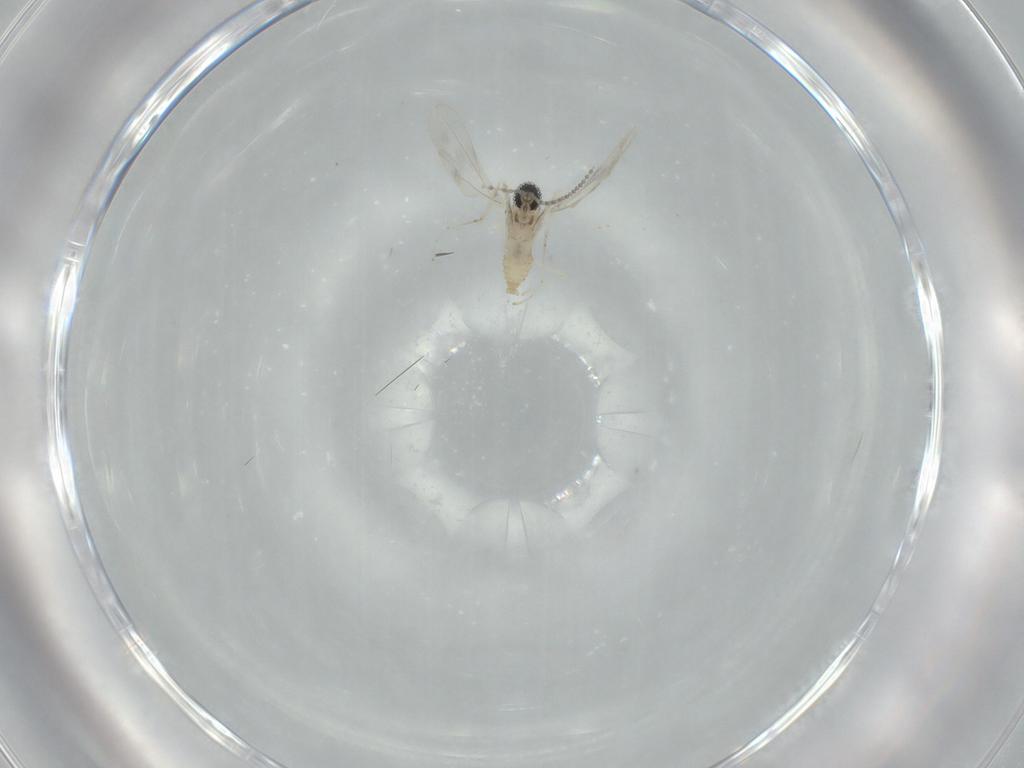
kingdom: Animalia
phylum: Arthropoda
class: Insecta
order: Diptera
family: Cecidomyiidae
